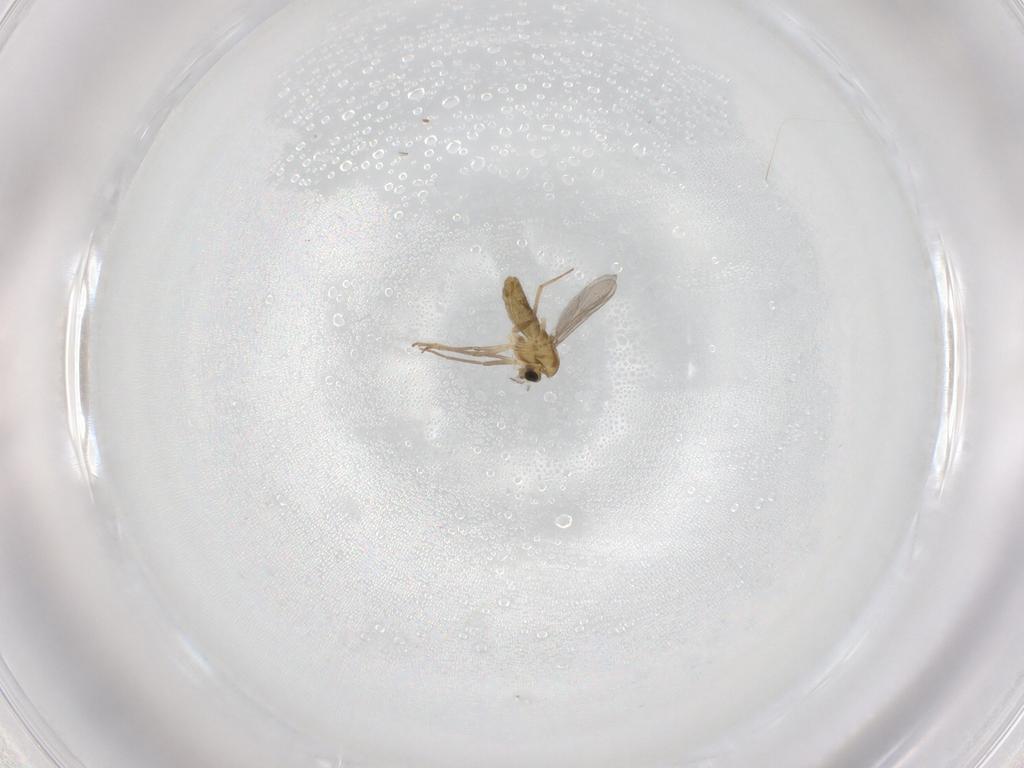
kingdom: Animalia
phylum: Arthropoda
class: Insecta
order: Diptera
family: Chironomidae
